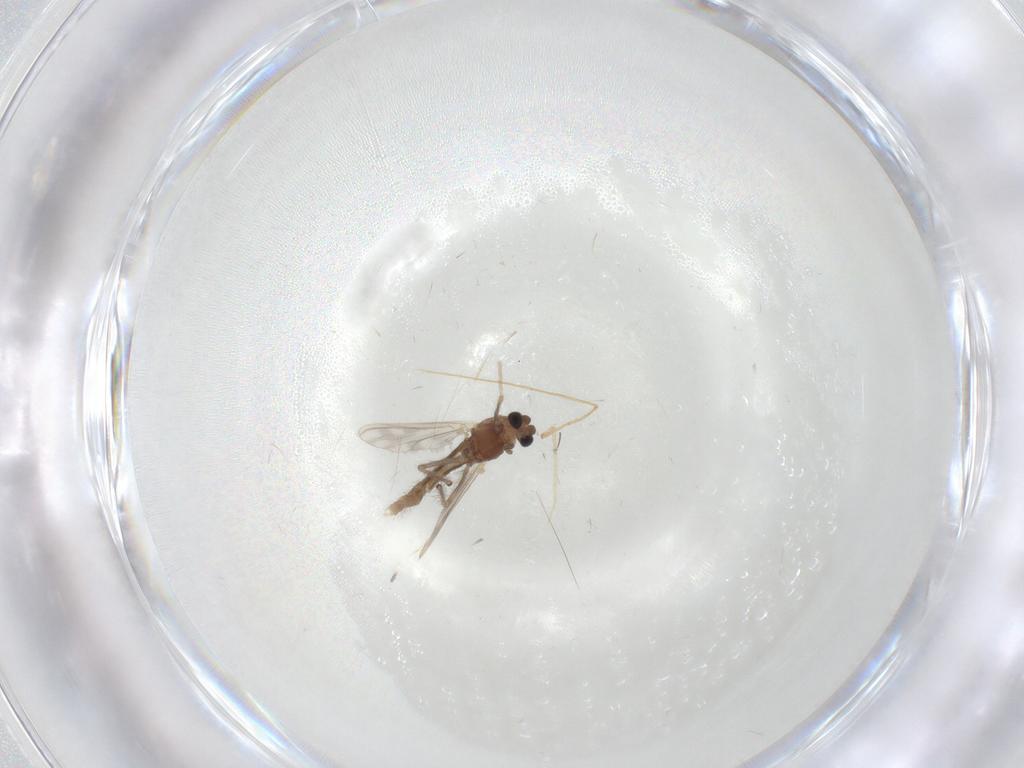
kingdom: Animalia
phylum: Arthropoda
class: Insecta
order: Diptera
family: Chironomidae
